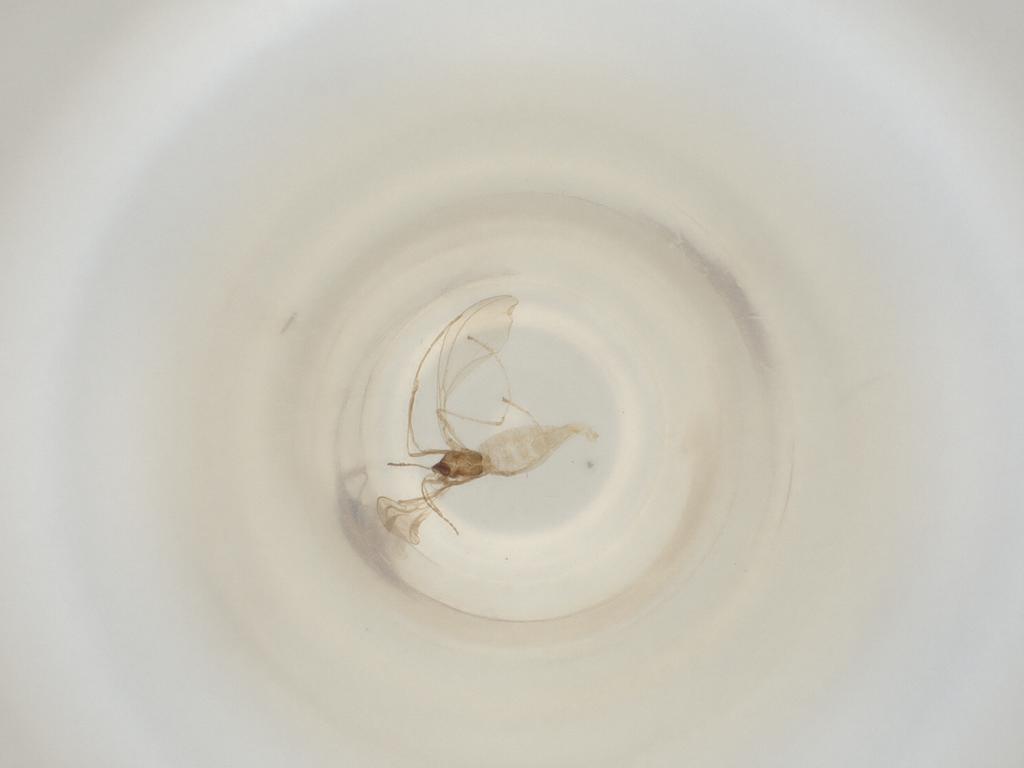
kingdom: Animalia
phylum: Arthropoda
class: Insecta
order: Diptera
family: Cecidomyiidae
